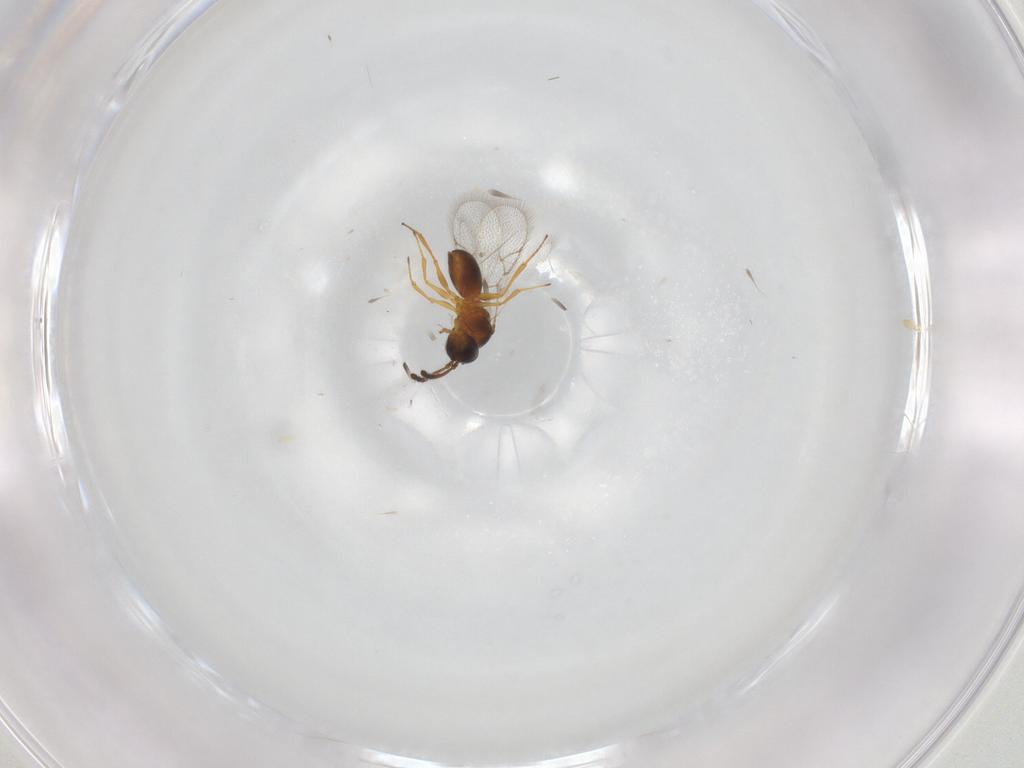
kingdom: Animalia
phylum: Arthropoda
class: Insecta
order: Hymenoptera
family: Figitidae
